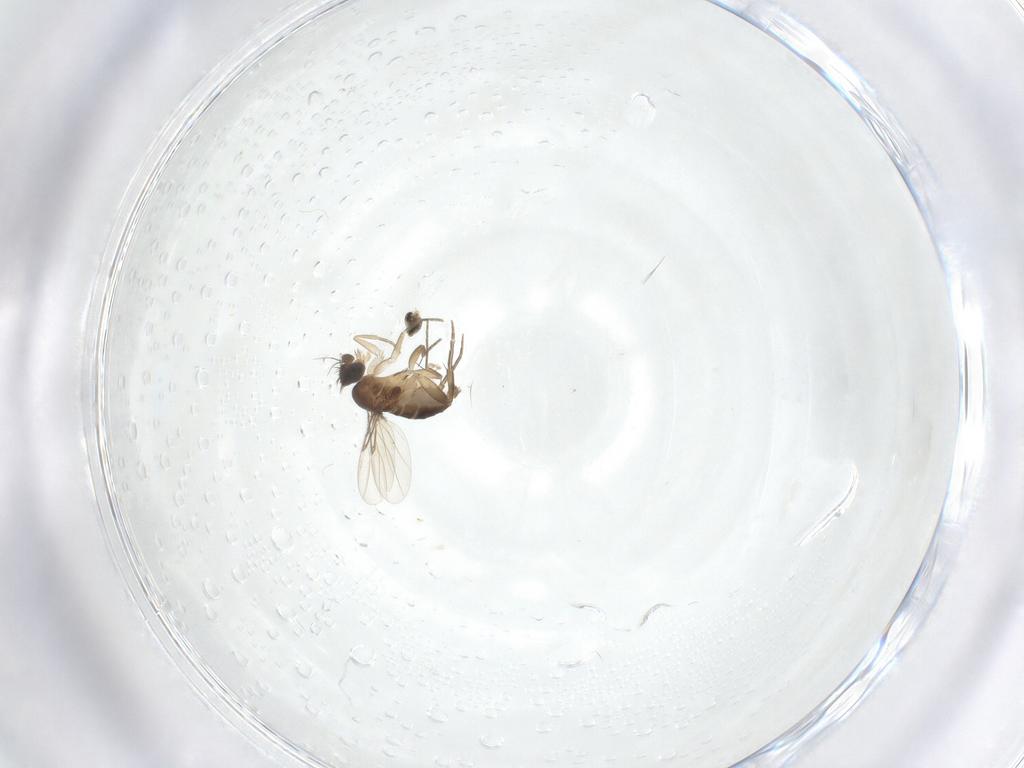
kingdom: Animalia
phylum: Arthropoda
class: Insecta
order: Diptera
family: Phoridae
